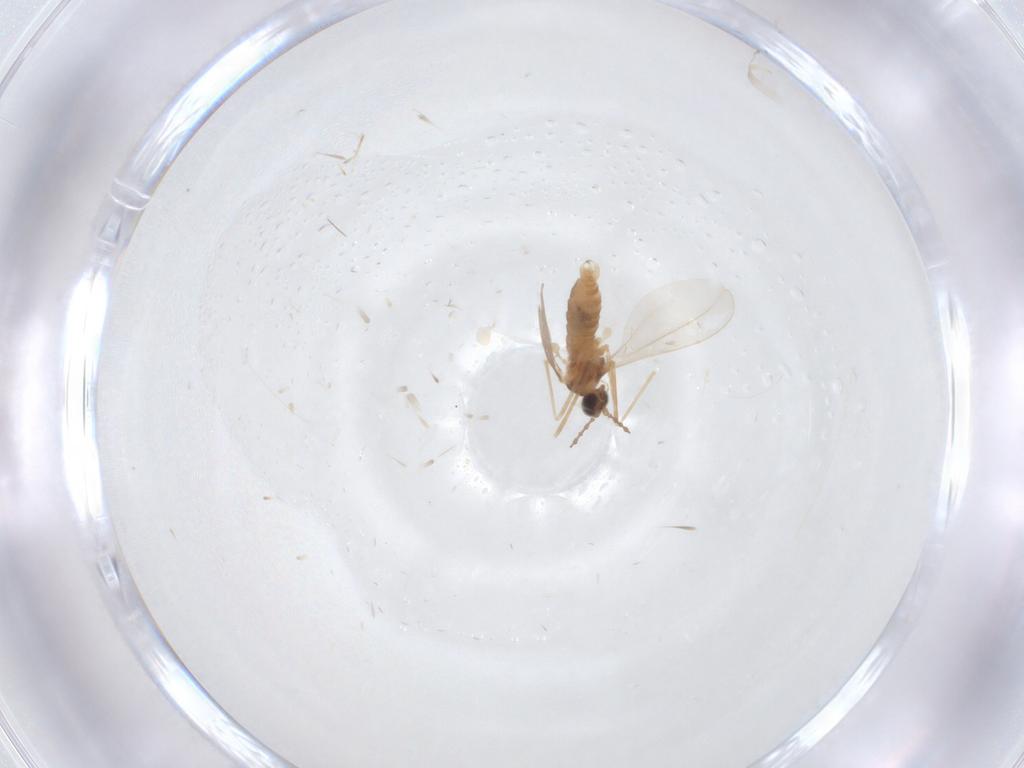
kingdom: Animalia
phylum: Arthropoda
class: Insecta
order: Diptera
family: Cecidomyiidae
